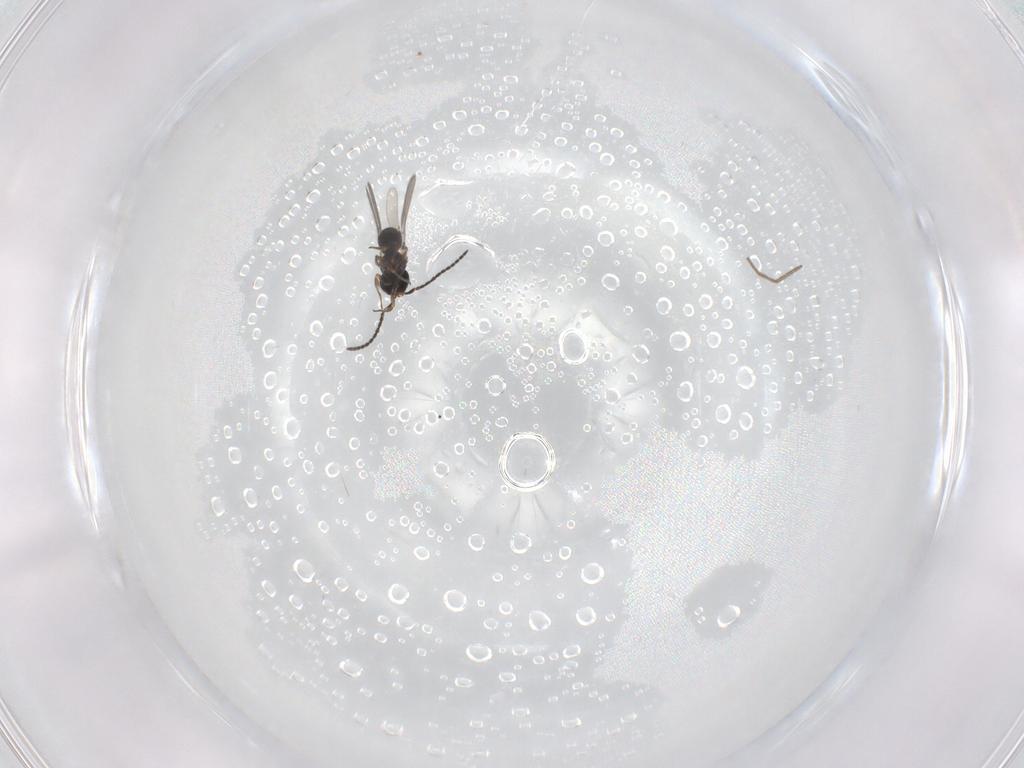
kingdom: Animalia
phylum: Arthropoda
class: Insecta
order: Hymenoptera
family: Scelionidae
